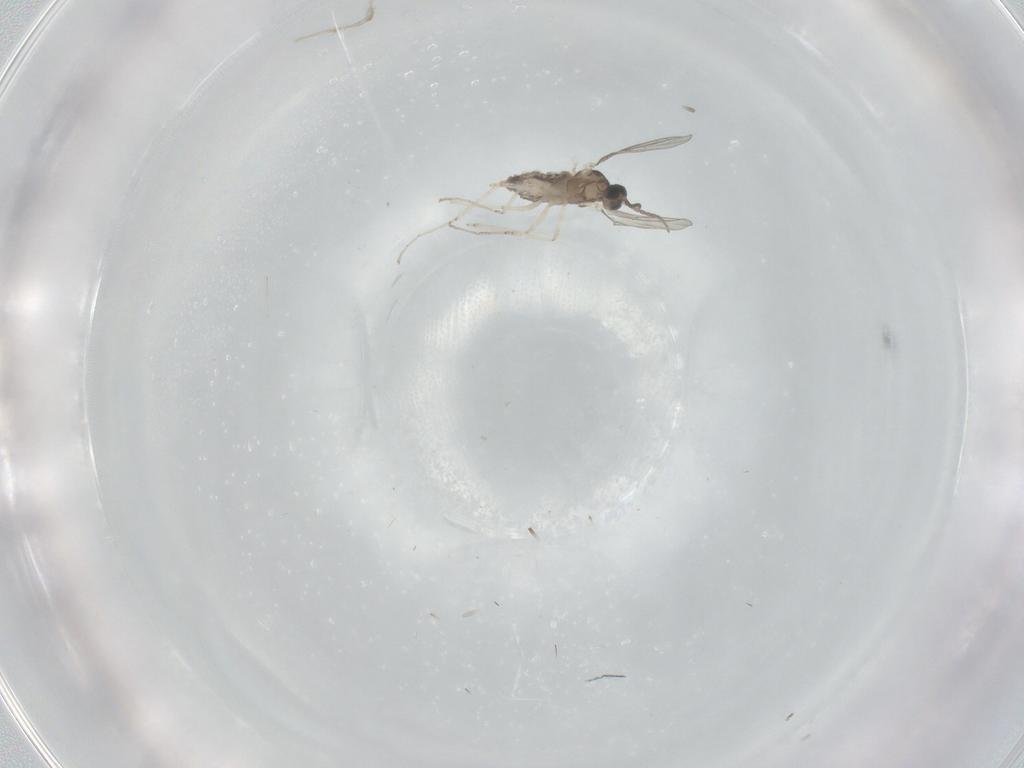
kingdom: Animalia
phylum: Arthropoda
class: Insecta
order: Diptera
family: Cecidomyiidae
